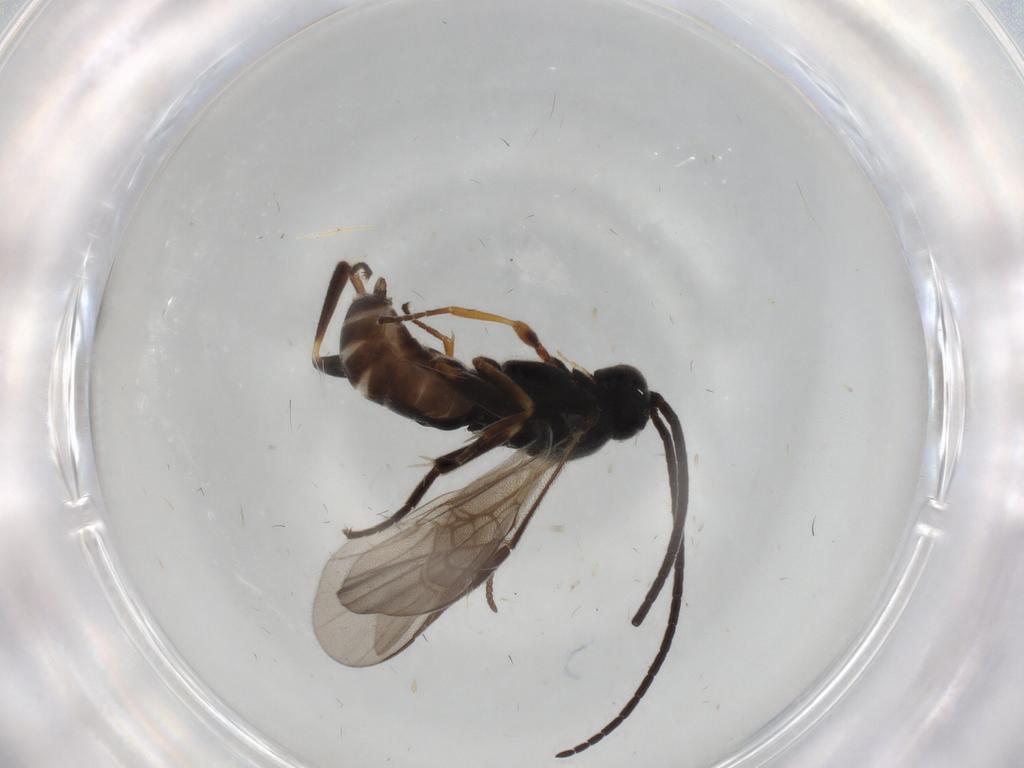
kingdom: Animalia
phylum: Arthropoda
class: Insecta
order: Hymenoptera
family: Braconidae
